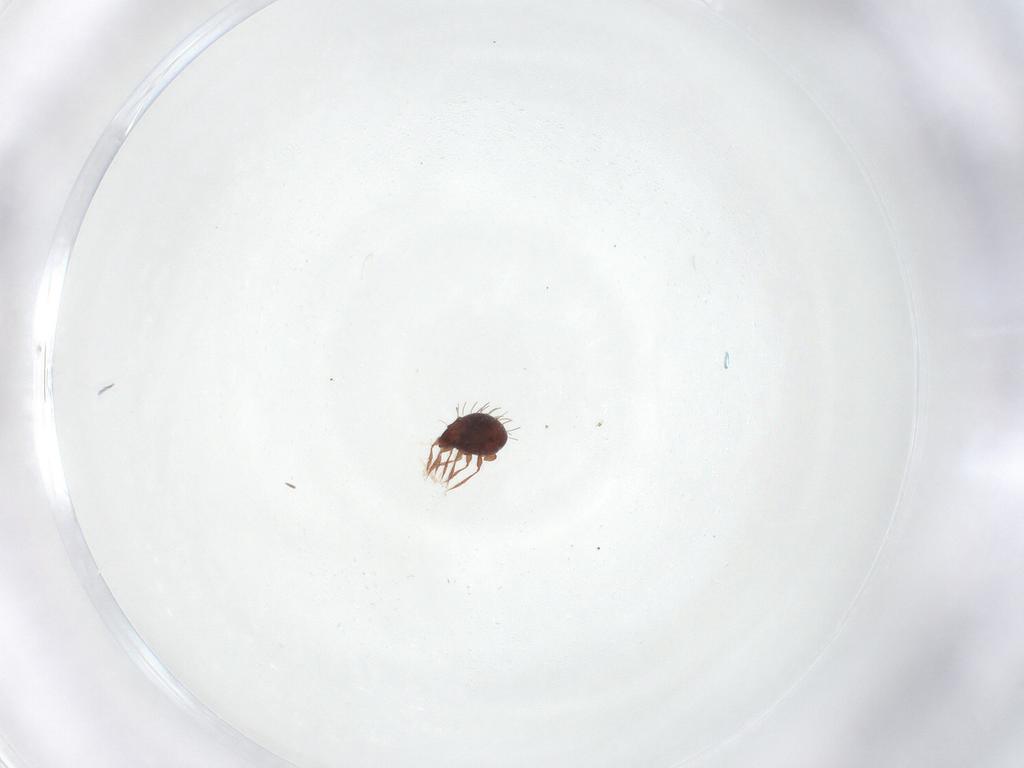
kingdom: Animalia
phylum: Arthropoda
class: Arachnida
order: Sarcoptiformes
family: Caloppiidae
